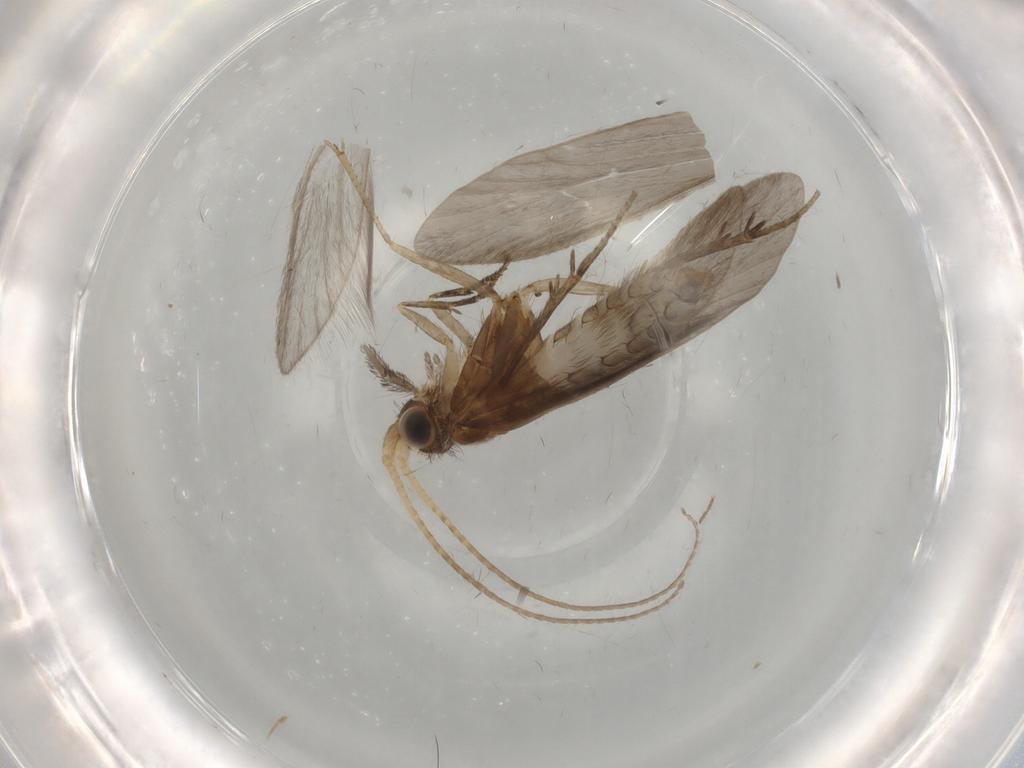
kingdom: Animalia
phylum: Arthropoda
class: Insecta
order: Trichoptera
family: Helicopsychidae
